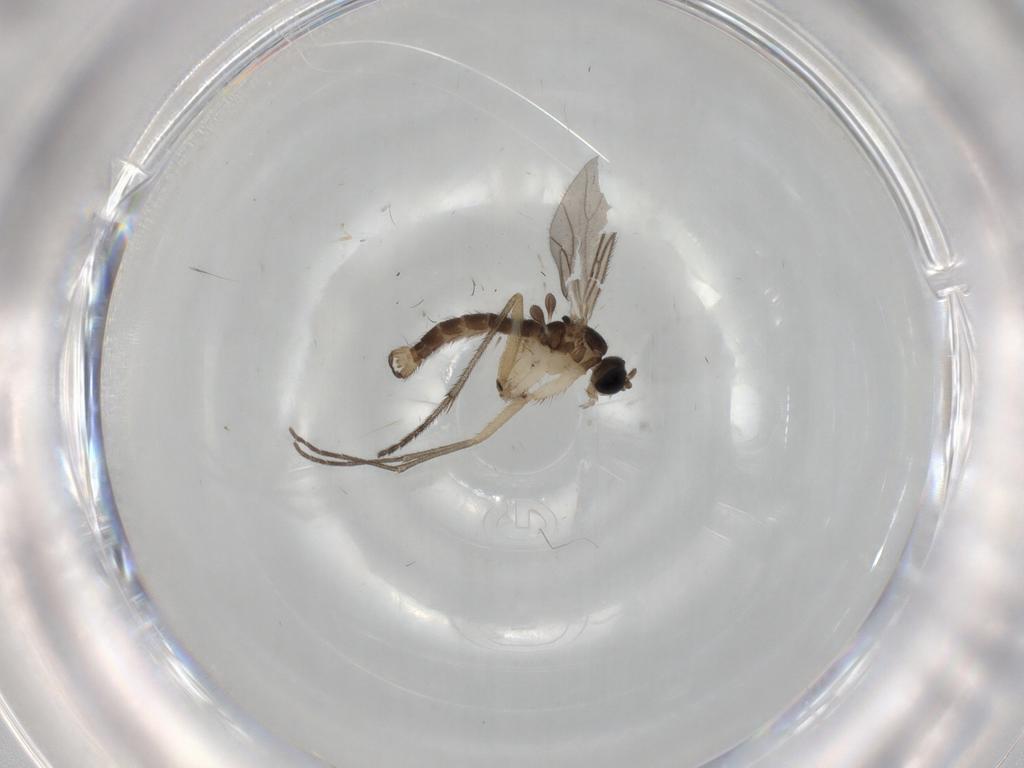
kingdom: Animalia
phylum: Arthropoda
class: Insecta
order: Diptera
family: Sciaridae
